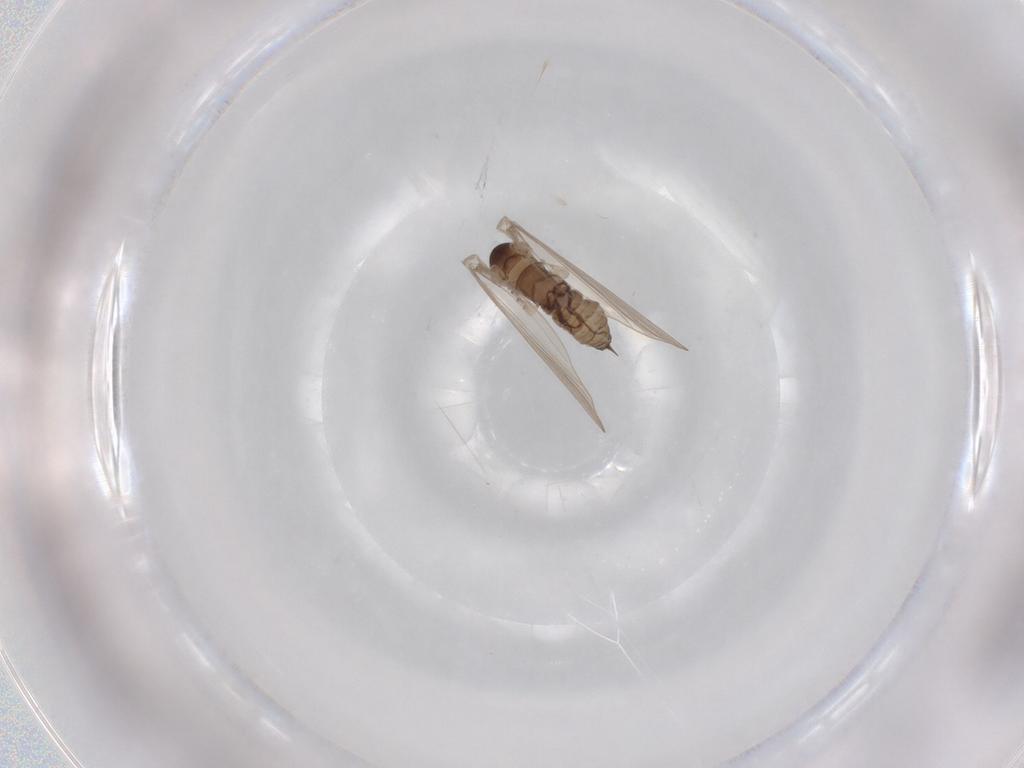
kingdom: Animalia
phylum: Arthropoda
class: Insecta
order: Diptera
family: Psychodidae
